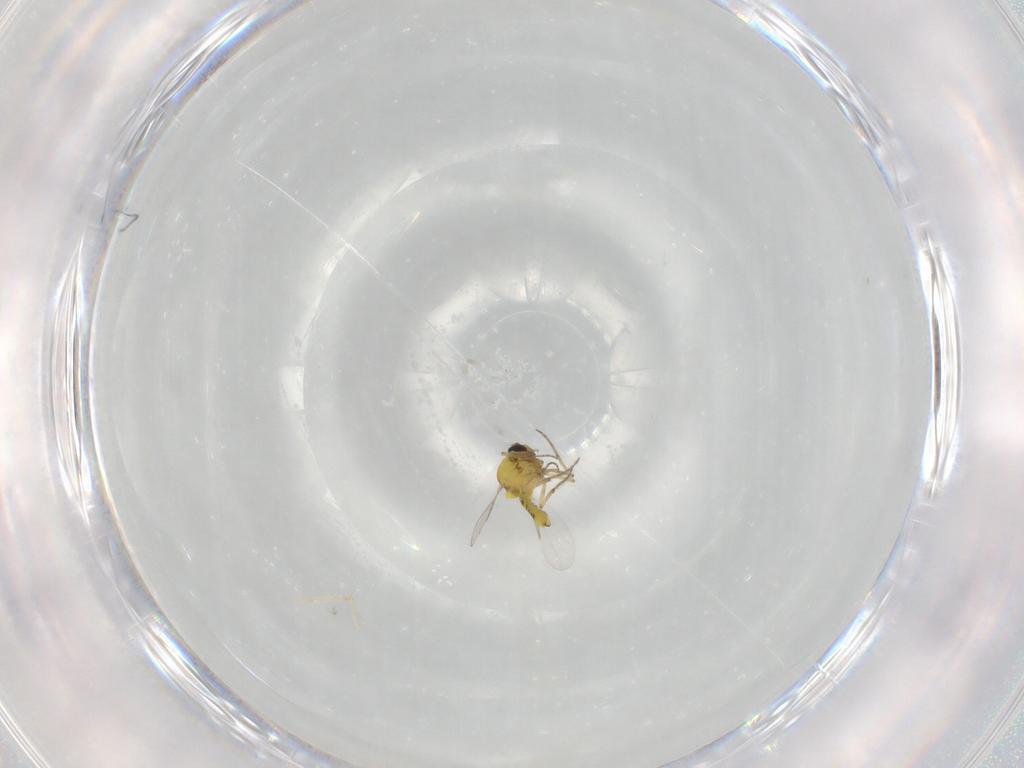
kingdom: Animalia
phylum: Arthropoda
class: Insecta
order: Diptera
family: Ceratopogonidae
